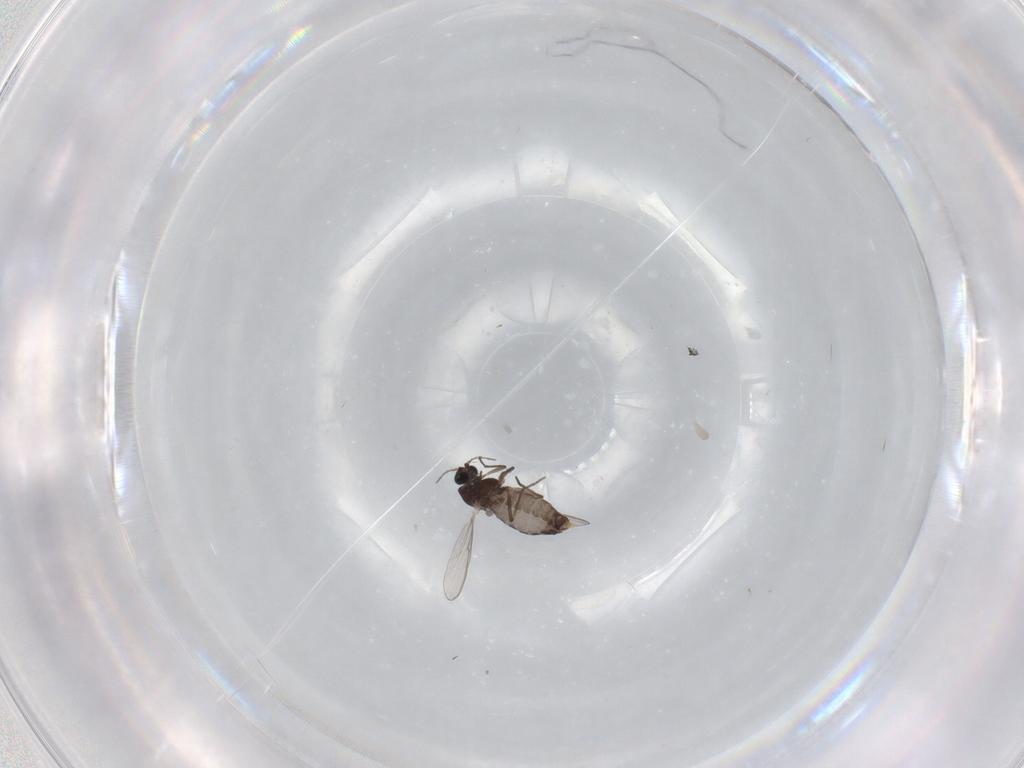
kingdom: Animalia
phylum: Arthropoda
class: Insecta
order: Diptera
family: Chironomidae
